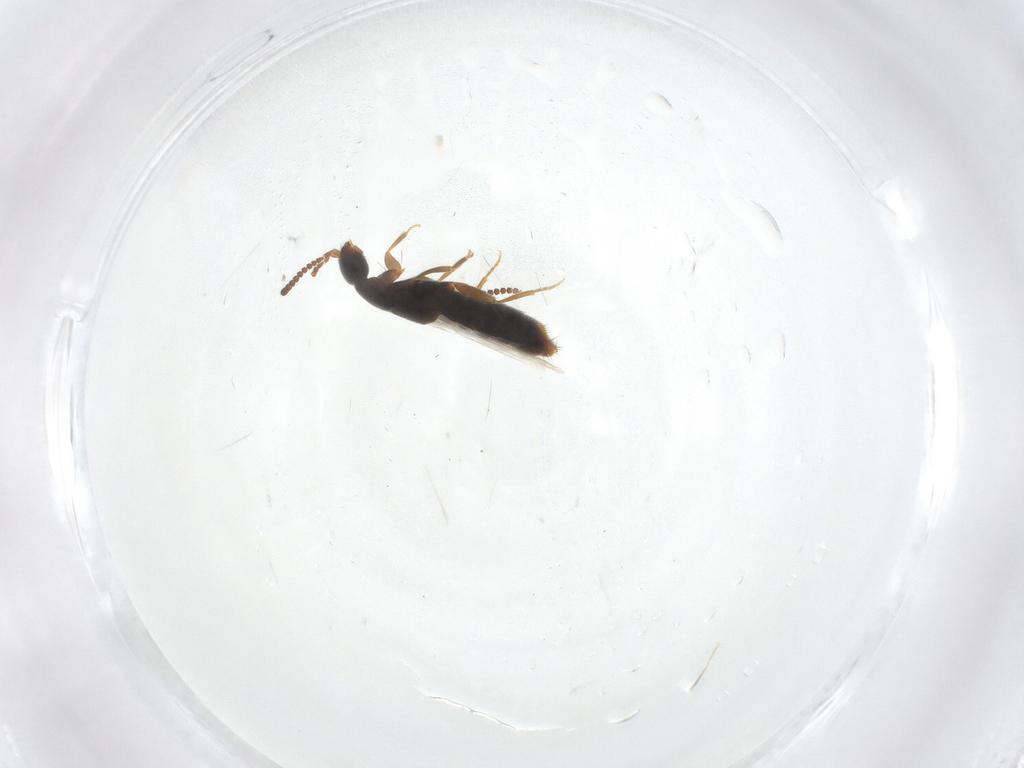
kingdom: Animalia
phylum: Arthropoda
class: Insecta
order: Coleoptera
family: Staphylinidae
